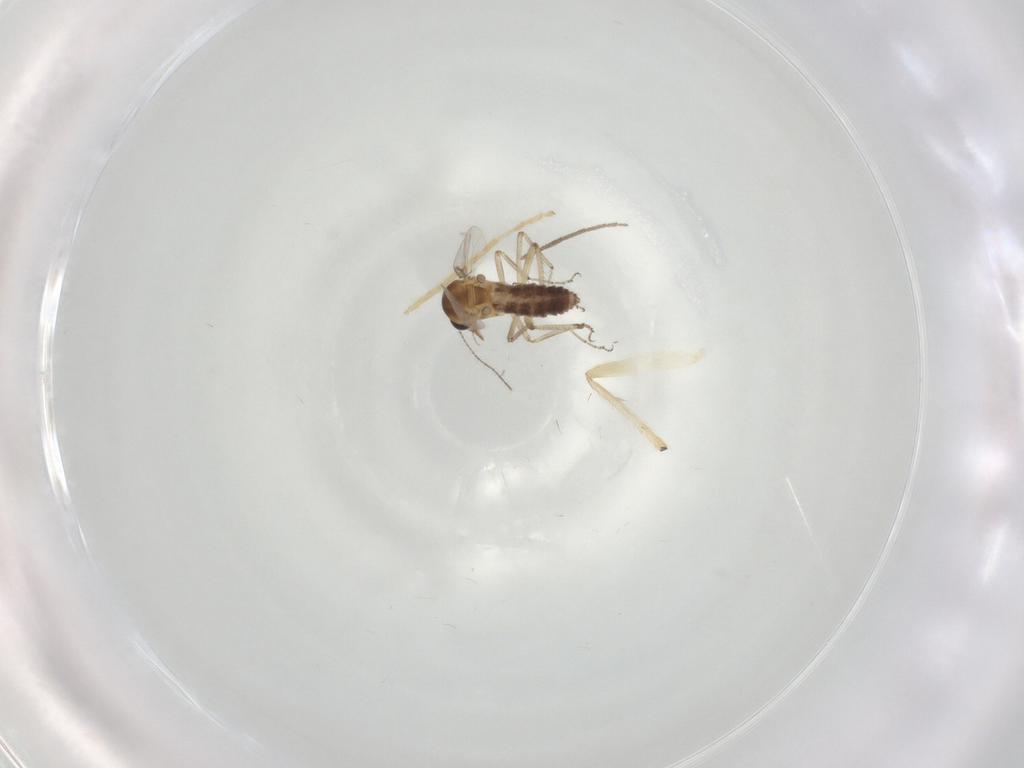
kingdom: Animalia
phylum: Arthropoda
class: Insecta
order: Diptera
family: Ceratopogonidae
